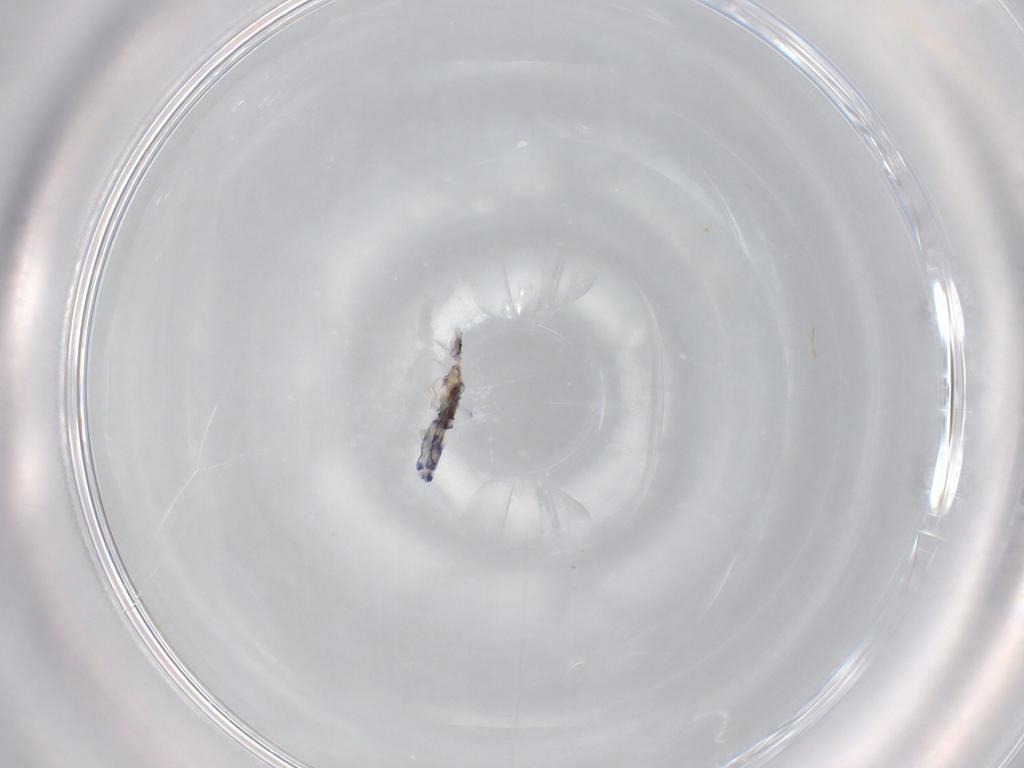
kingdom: Animalia
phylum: Arthropoda
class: Collembola
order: Entomobryomorpha
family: Entomobryidae
